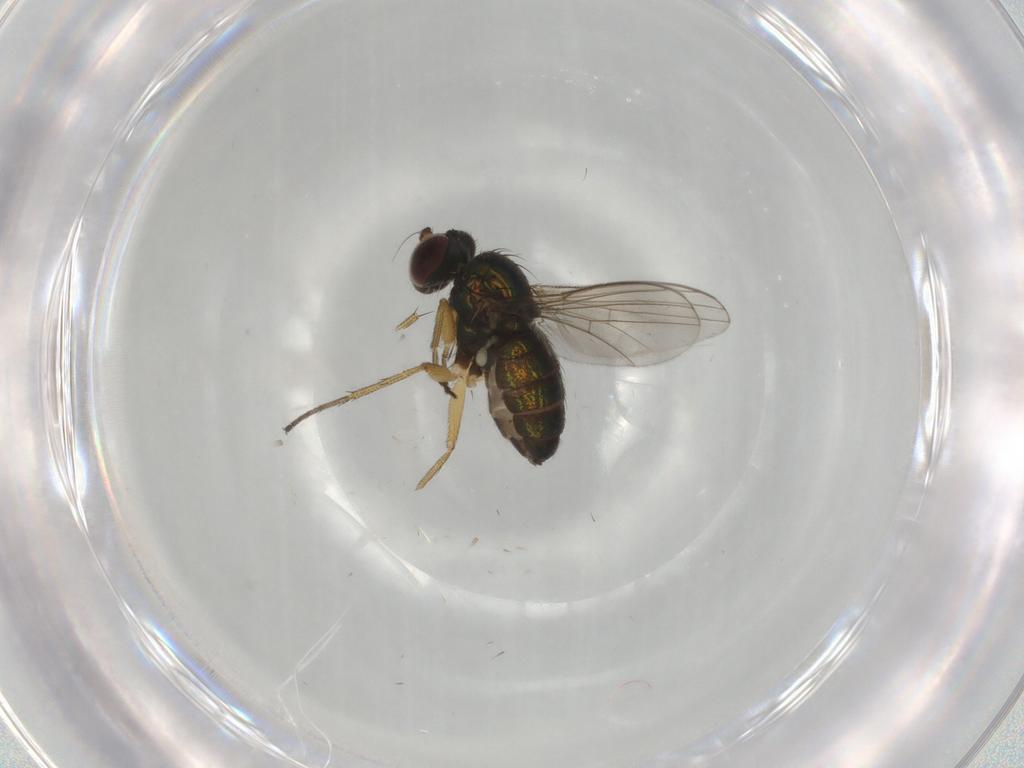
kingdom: Animalia
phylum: Arthropoda
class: Insecta
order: Diptera
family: Dolichopodidae
